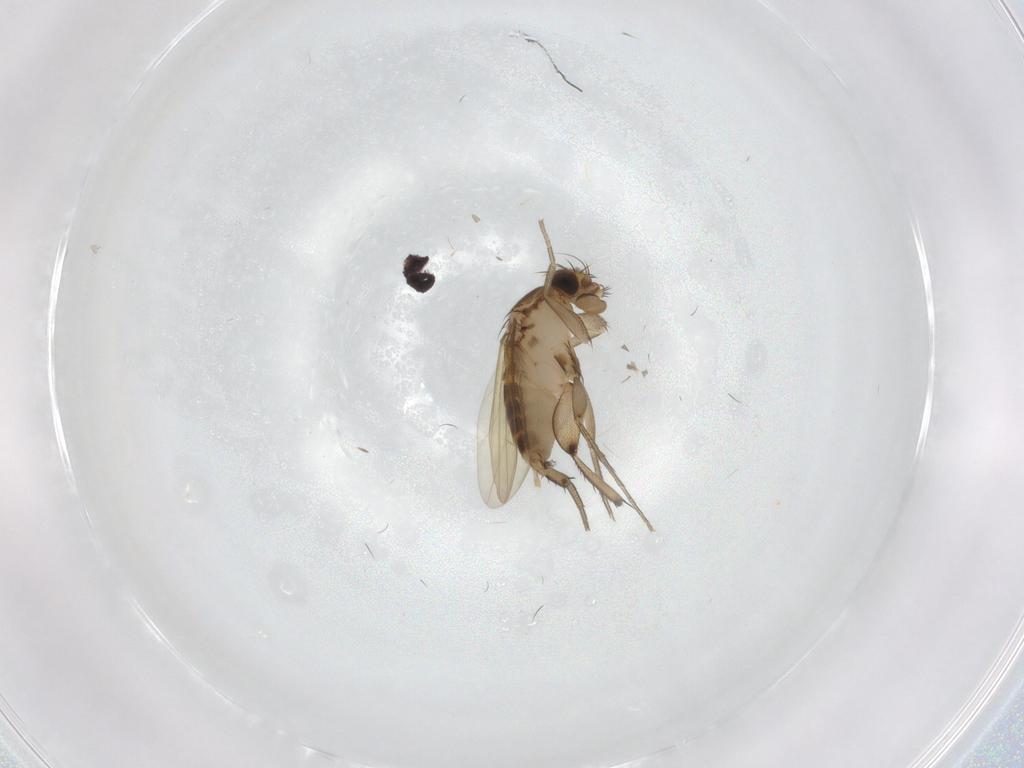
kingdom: Animalia
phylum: Arthropoda
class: Insecta
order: Diptera
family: Phoridae
